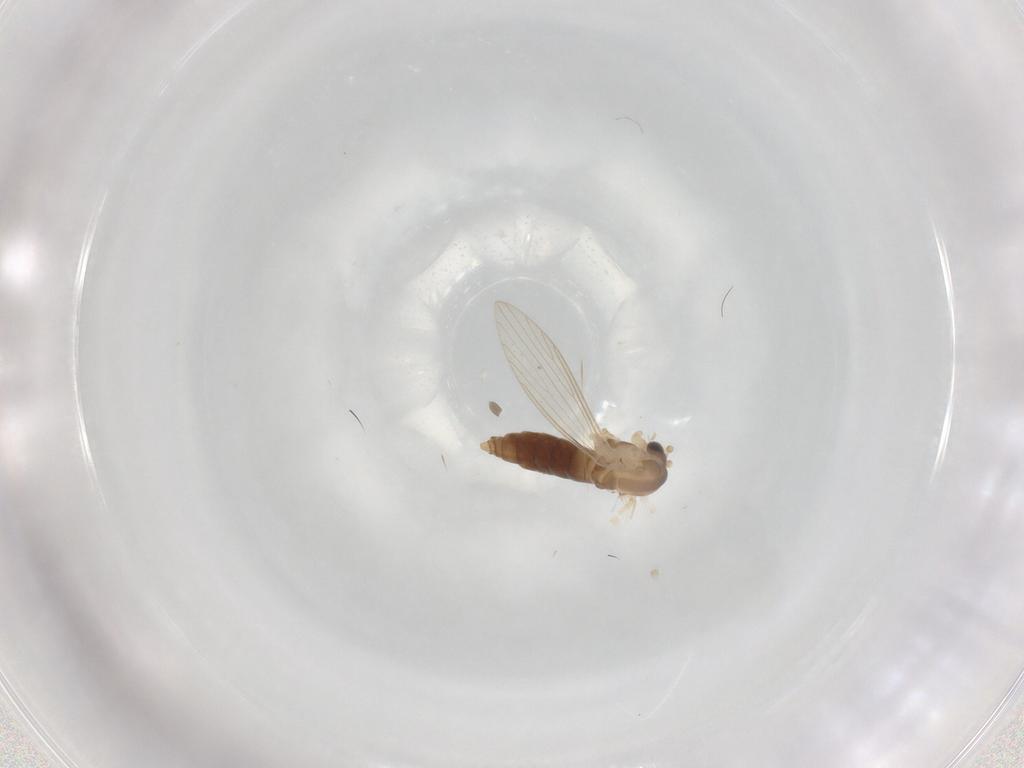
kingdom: Animalia
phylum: Arthropoda
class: Insecta
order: Diptera
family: Psychodidae
